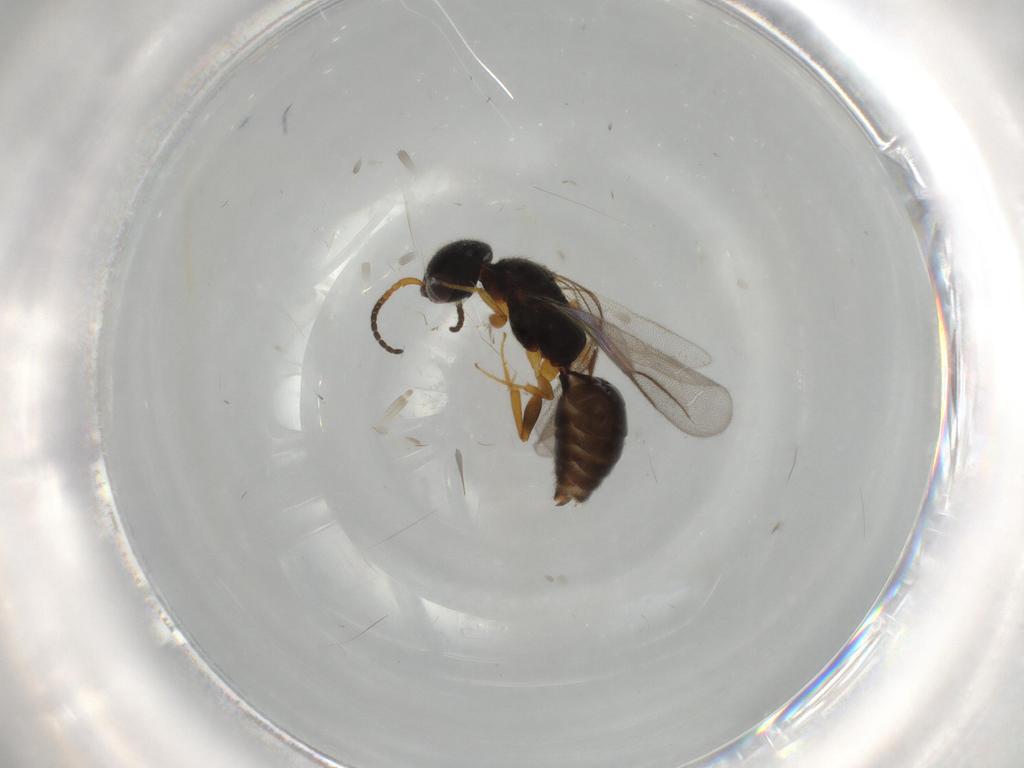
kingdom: Animalia
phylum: Arthropoda
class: Insecta
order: Hymenoptera
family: Bethylidae
